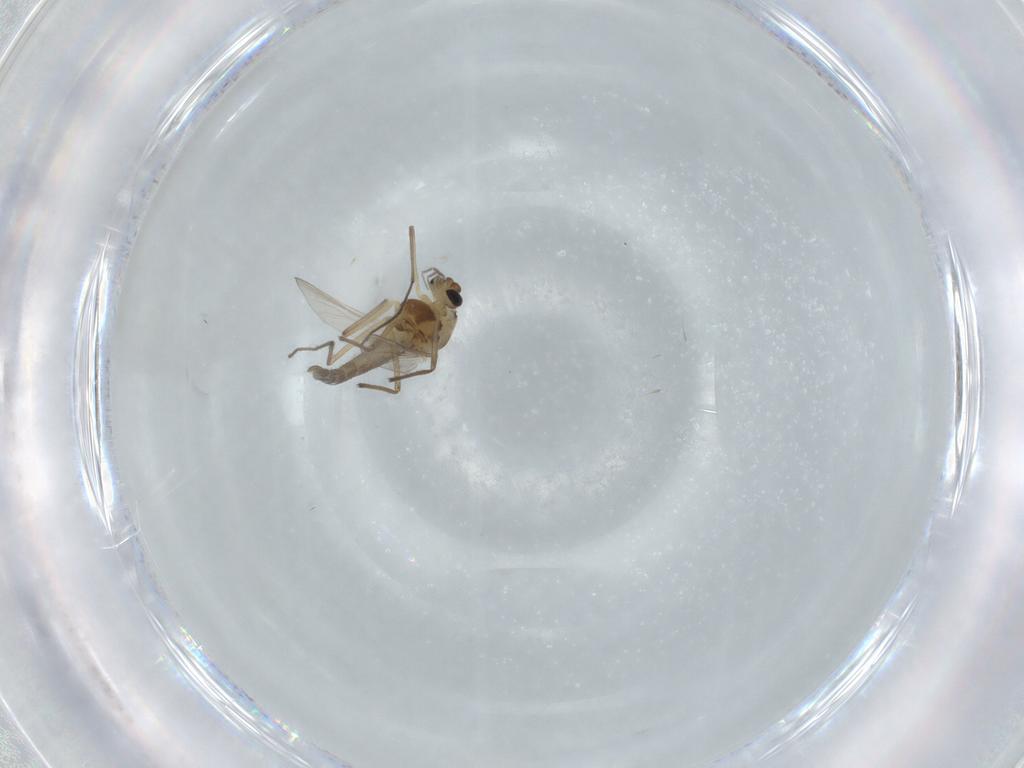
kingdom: Animalia
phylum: Arthropoda
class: Insecta
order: Diptera
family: Chironomidae
